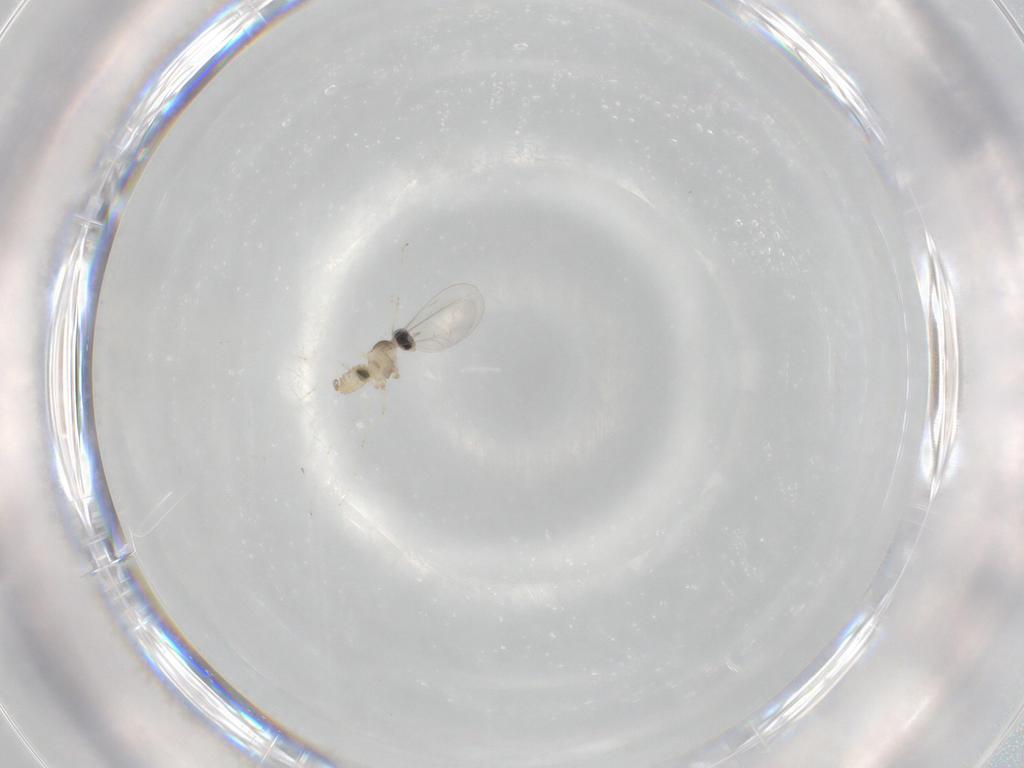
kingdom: Animalia
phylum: Arthropoda
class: Insecta
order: Diptera
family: Cecidomyiidae
